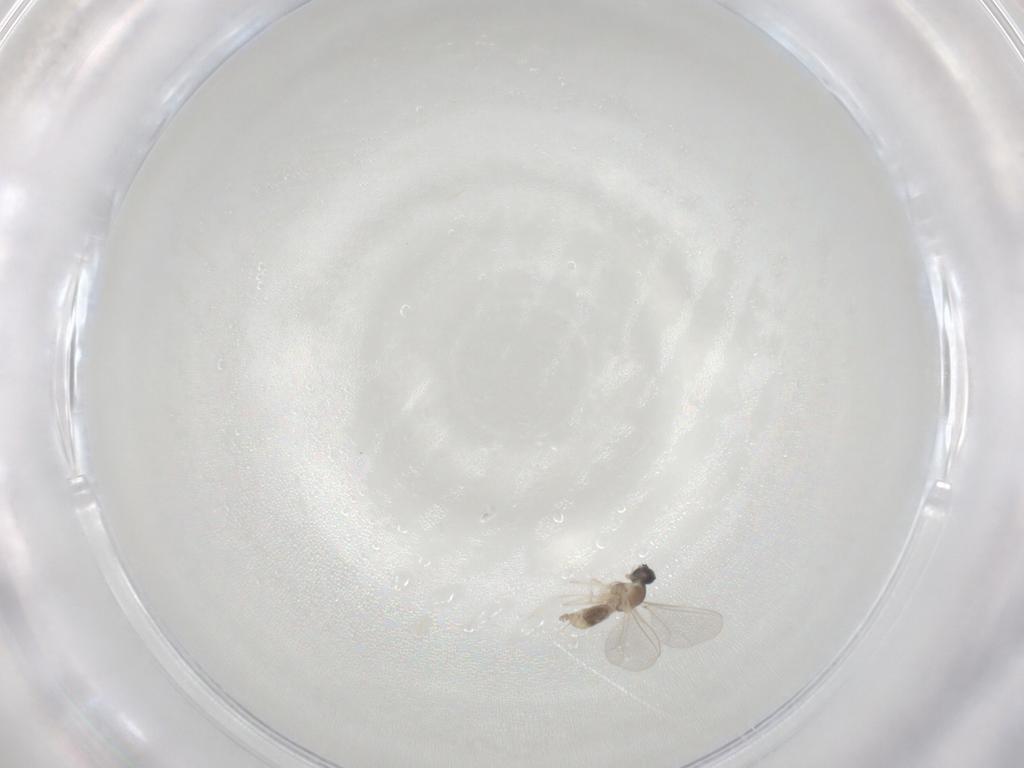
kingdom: Animalia
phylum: Arthropoda
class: Insecta
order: Diptera
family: Cecidomyiidae
